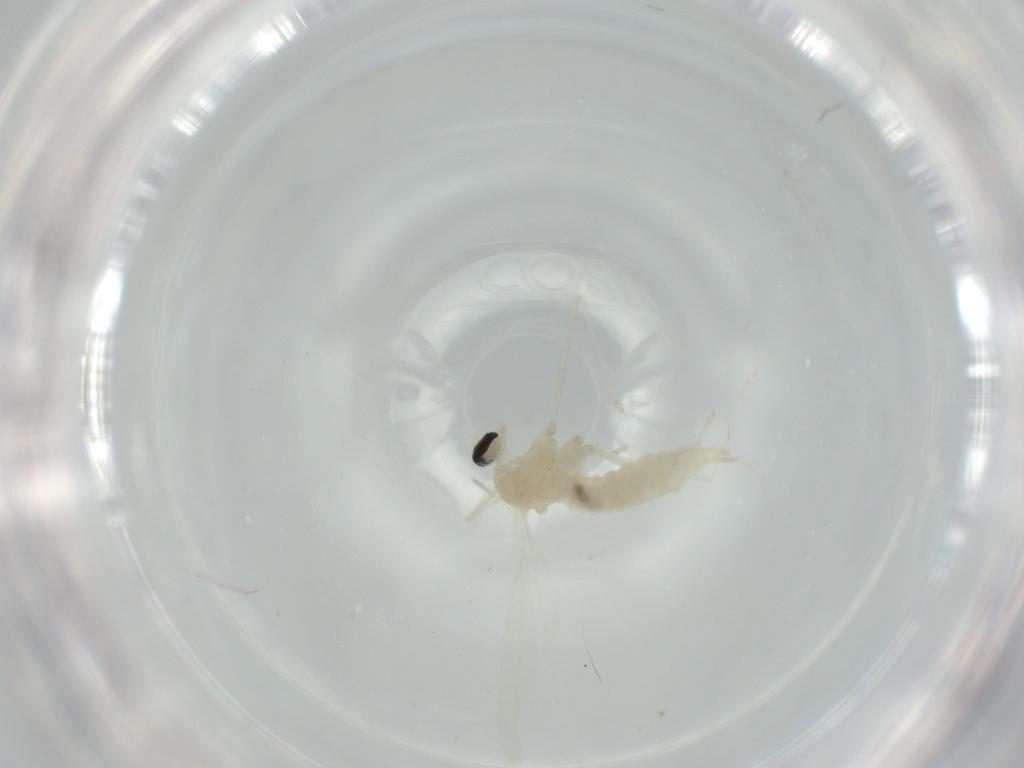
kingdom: Animalia
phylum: Arthropoda
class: Insecta
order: Diptera
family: Cecidomyiidae
